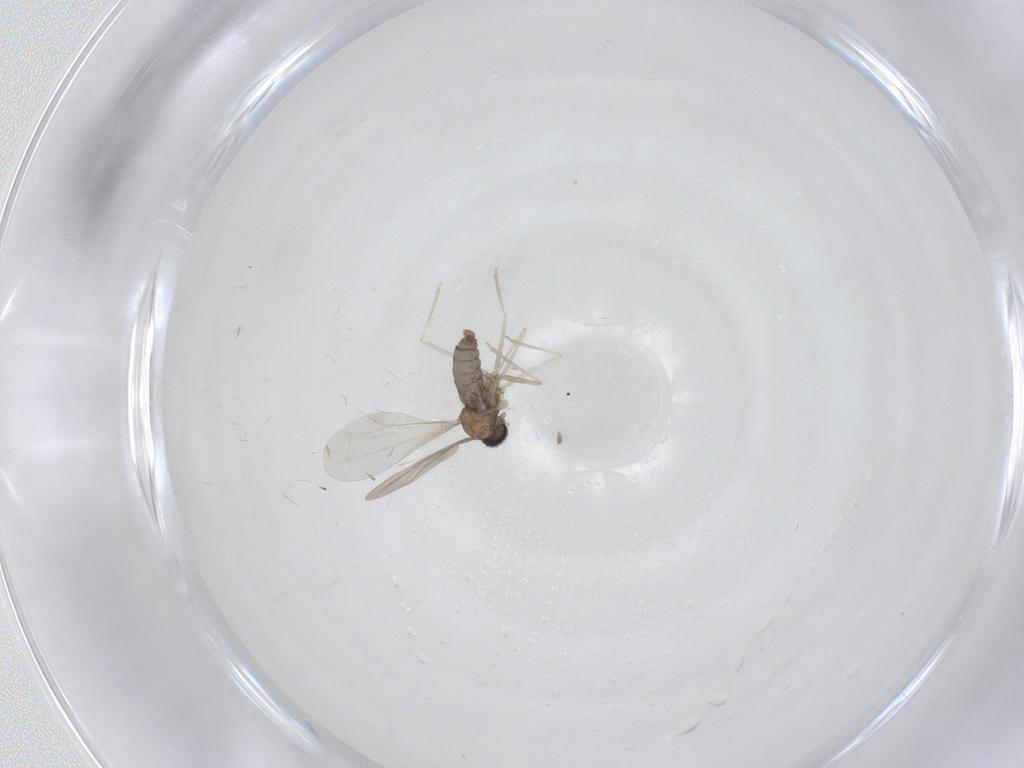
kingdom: Animalia
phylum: Arthropoda
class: Insecta
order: Diptera
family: Cecidomyiidae
